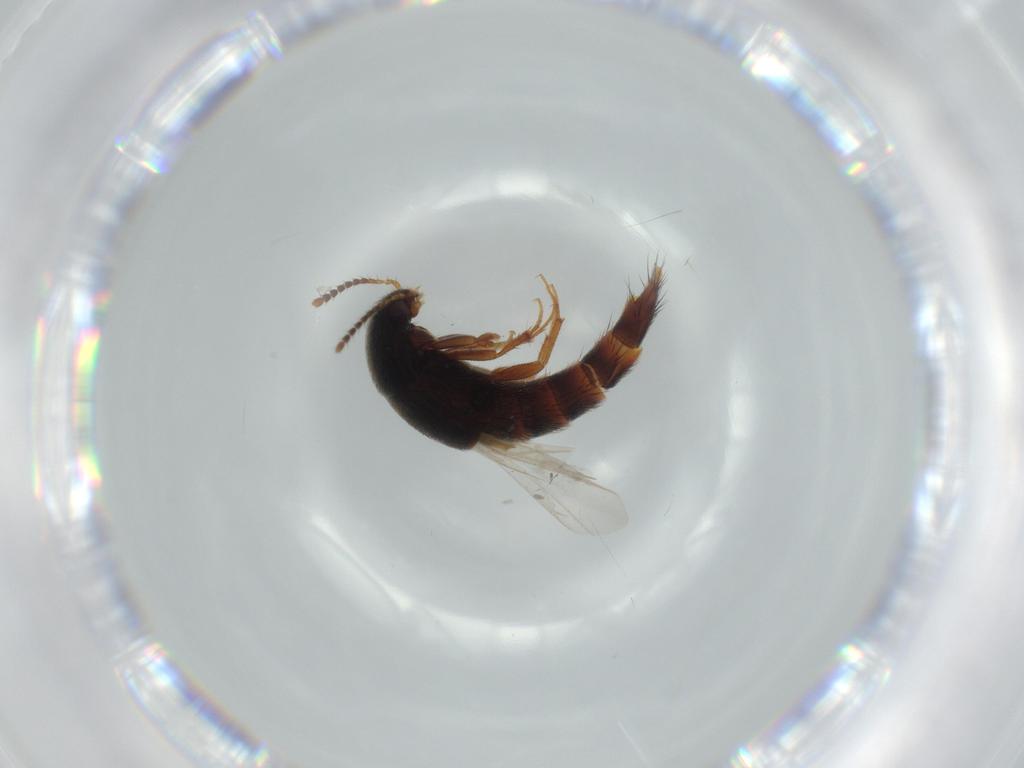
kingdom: Animalia
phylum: Arthropoda
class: Insecta
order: Coleoptera
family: Staphylinidae
